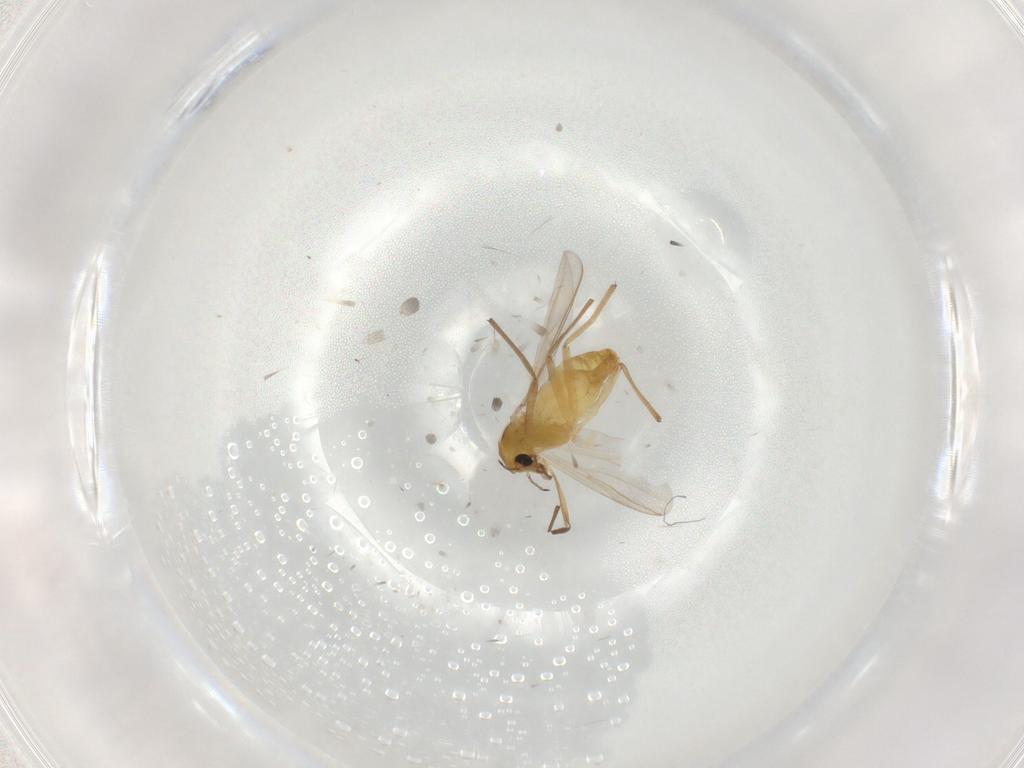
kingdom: Animalia
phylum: Arthropoda
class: Insecta
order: Diptera
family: Chironomidae
